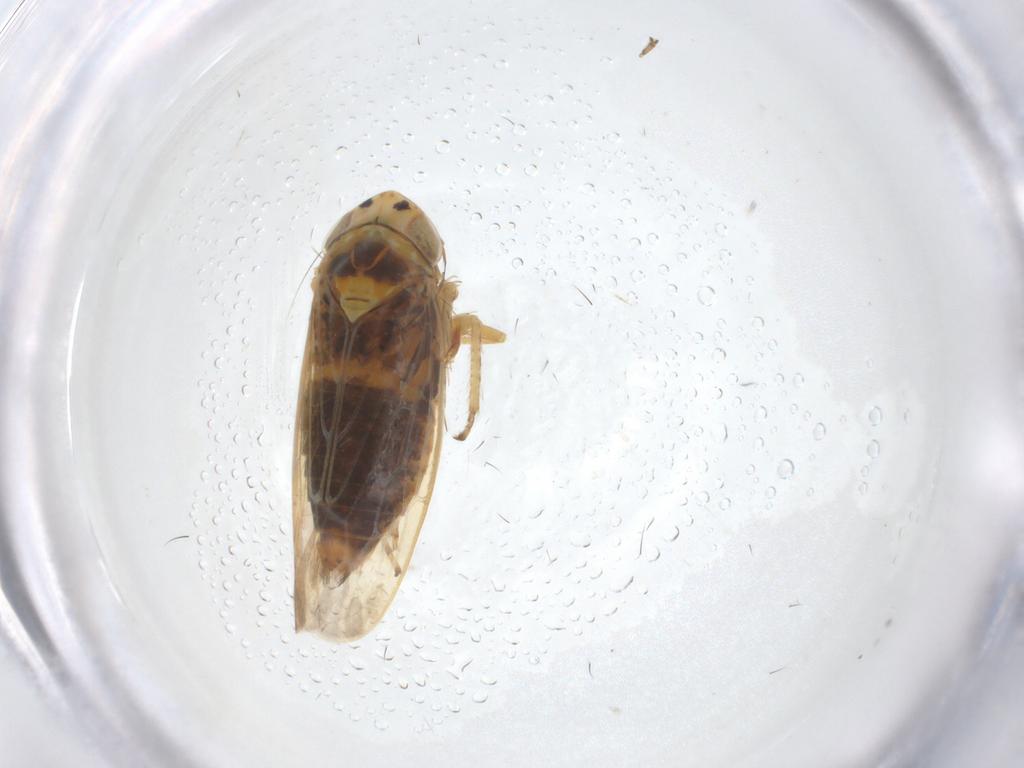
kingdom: Animalia
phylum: Arthropoda
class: Insecta
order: Hemiptera
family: Cicadellidae
